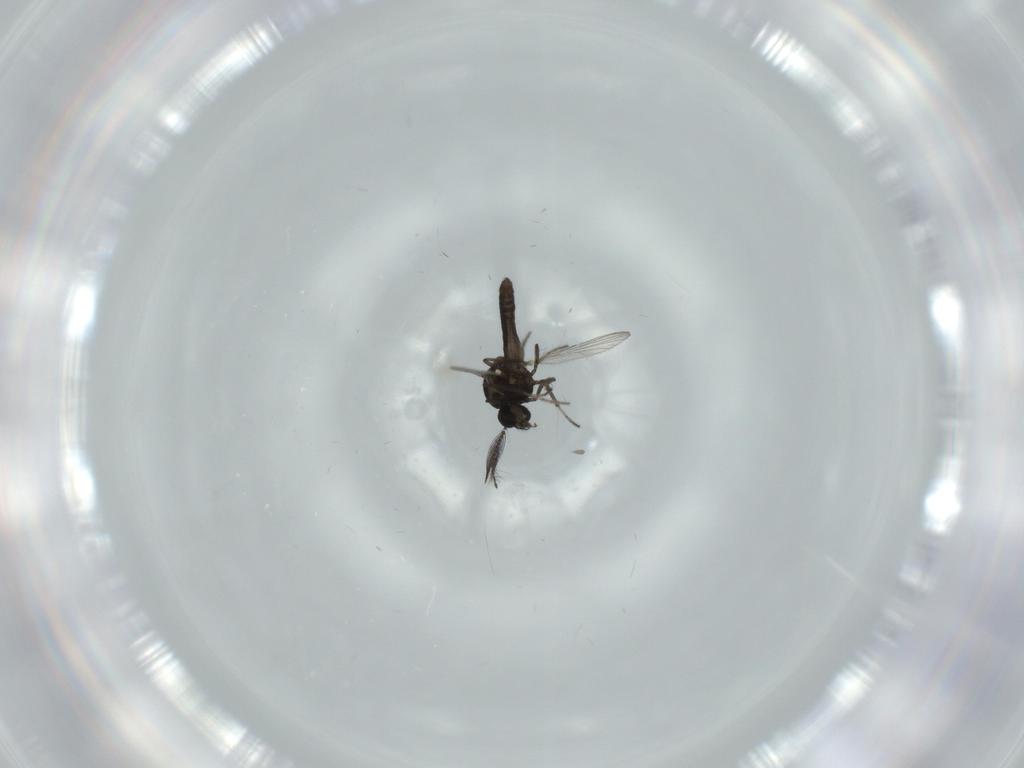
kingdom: Animalia
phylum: Arthropoda
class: Insecta
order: Diptera
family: Ceratopogonidae
